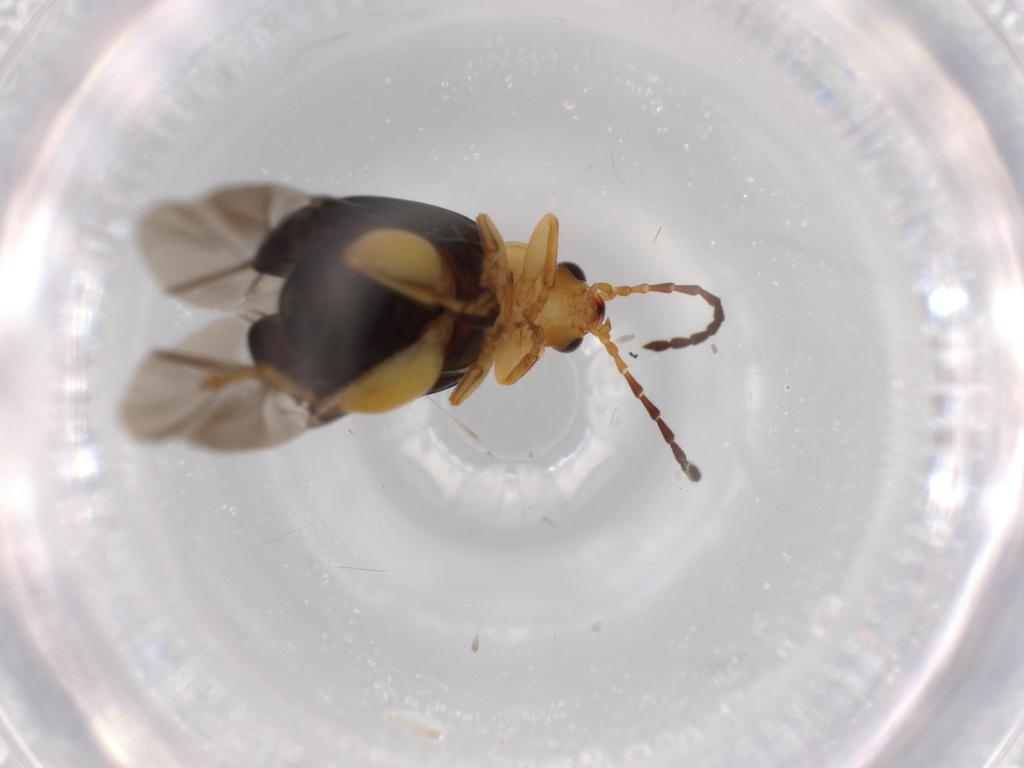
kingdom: Animalia
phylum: Arthropoda
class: Insecta
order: Coleoptera
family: Chrysomelidae
